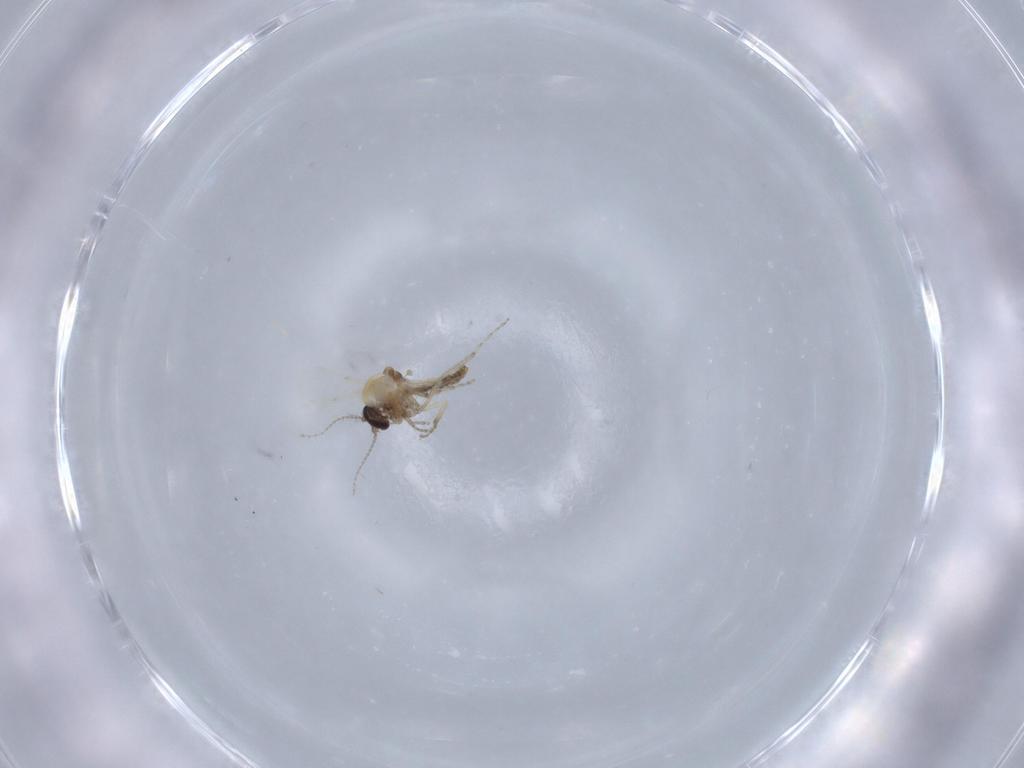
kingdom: Animalia
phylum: Arthropoda
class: Insecta
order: Diptera
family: Chironomidae
